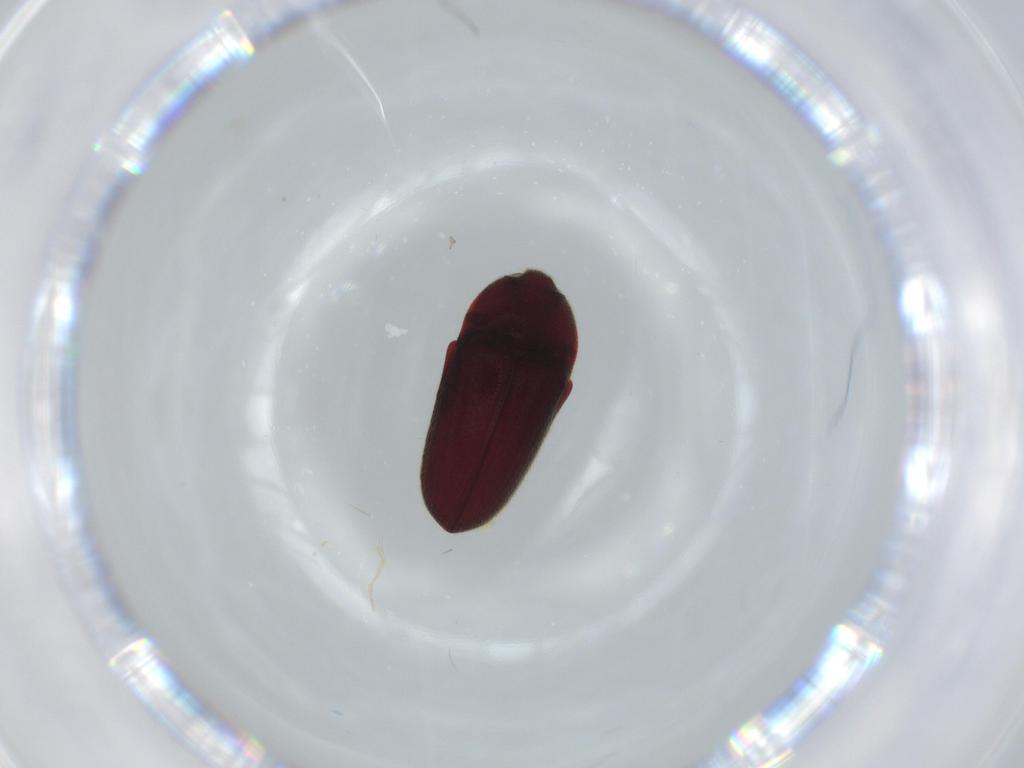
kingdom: Animalia
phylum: Arthropoda
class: Insecta
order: Coleoptera
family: Throscidae
